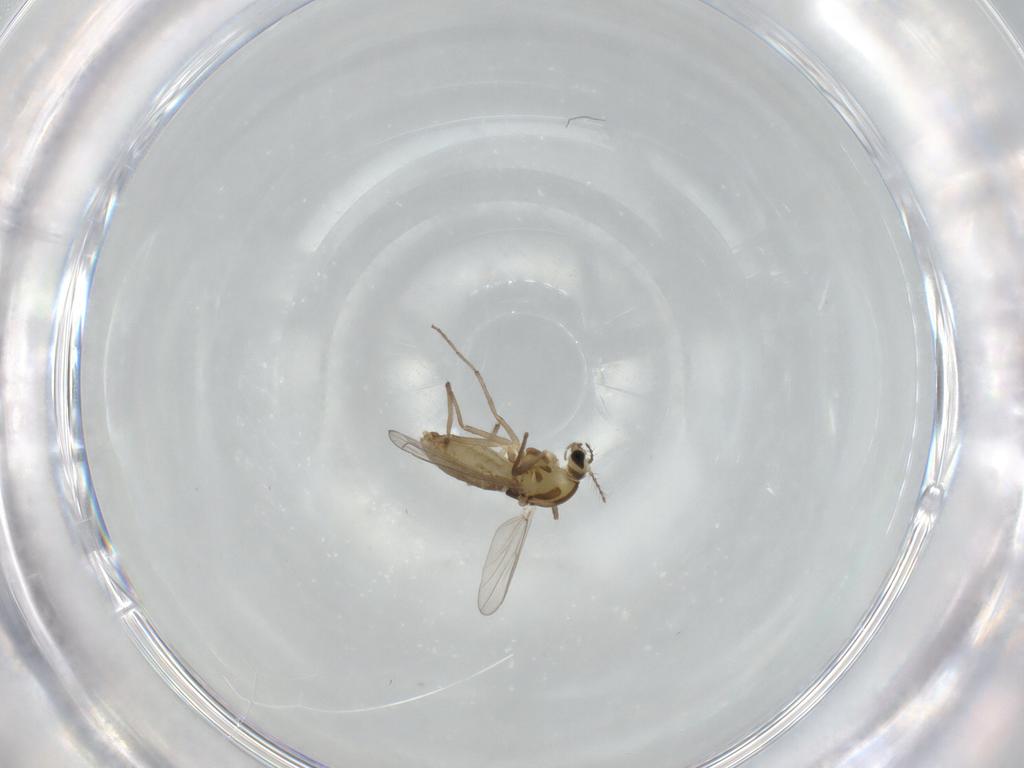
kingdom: Animalia
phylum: Arthropoda
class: Insecta
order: Diptera
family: Chironomidae
